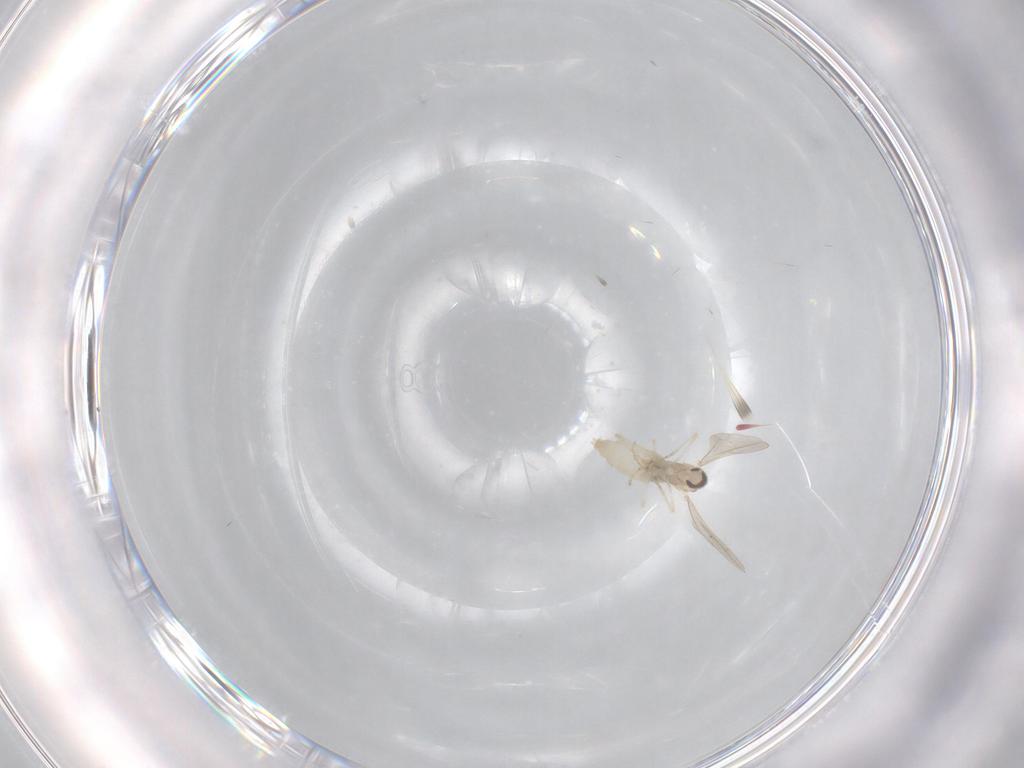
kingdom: Animalia
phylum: Arthropoda
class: Insecta
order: Diptera
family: Cecidomyiidae
